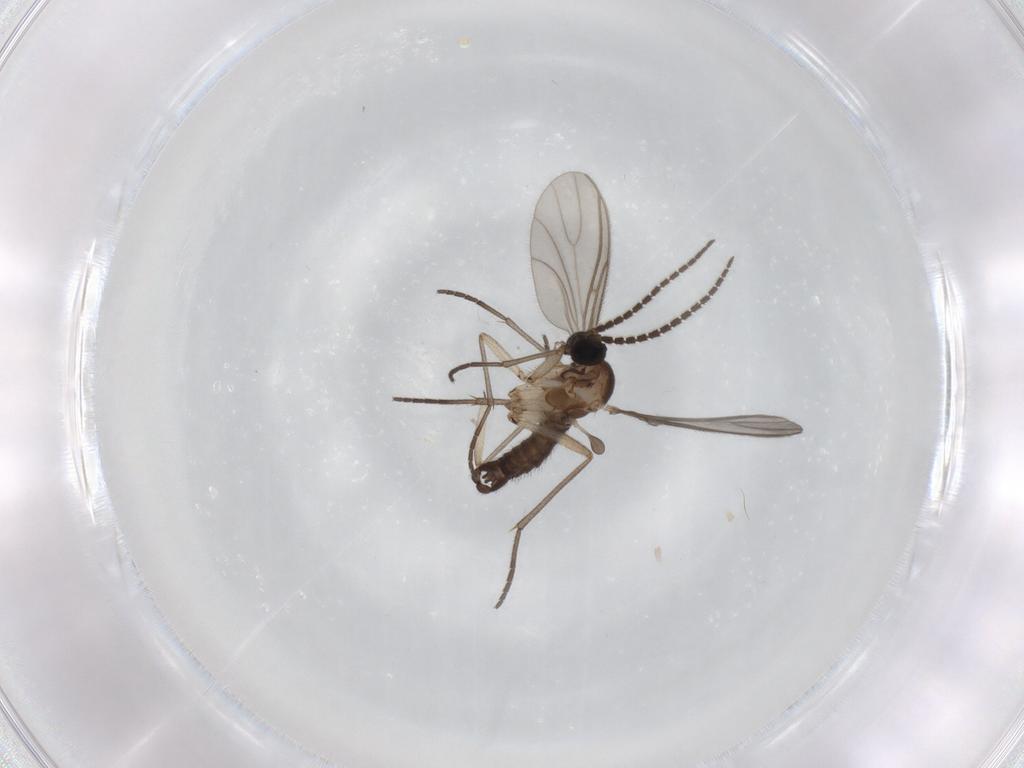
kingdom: Animalia
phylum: Arthropoda
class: Insecta
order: Diptera
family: Sciaridae
